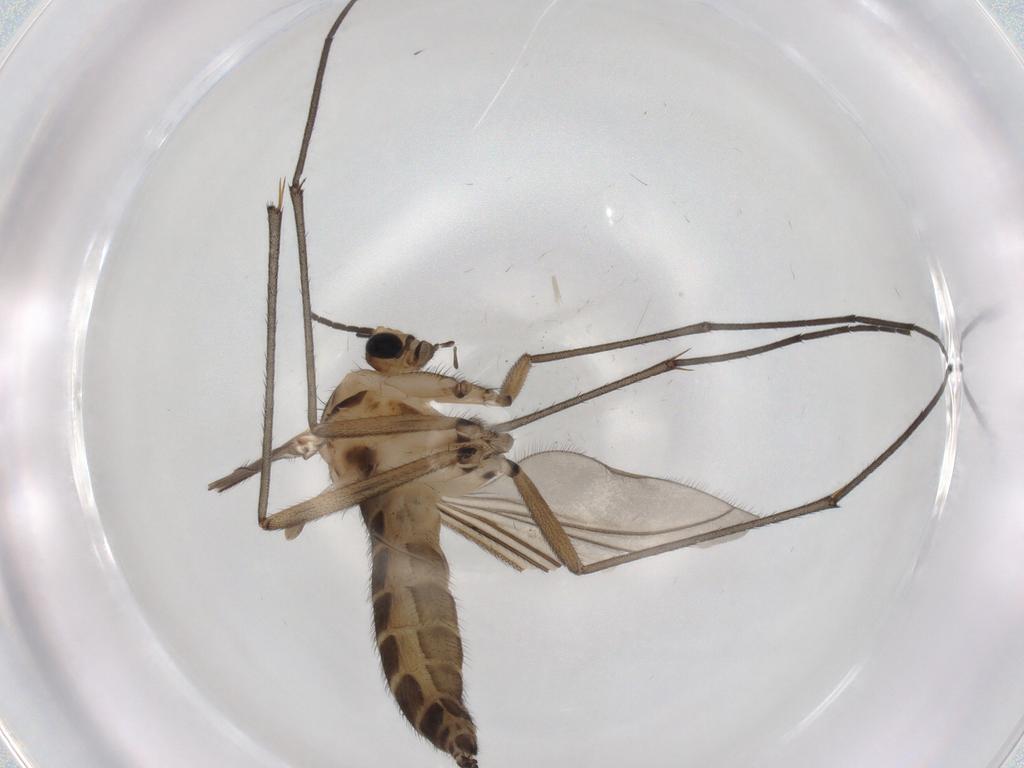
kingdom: Animalia
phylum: Arthropoda
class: Insecta
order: Diptera
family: Sciaridae
